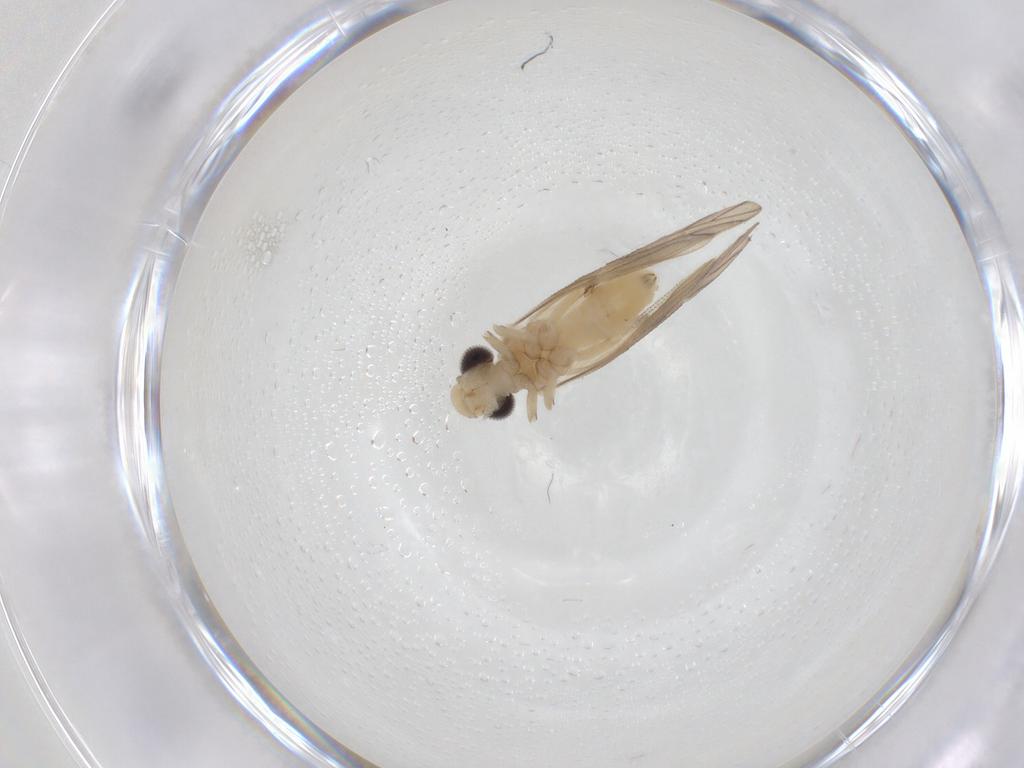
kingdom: Animalia
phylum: Arthropoda
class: Insecta
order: Psocodea
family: Caeciliusidae
